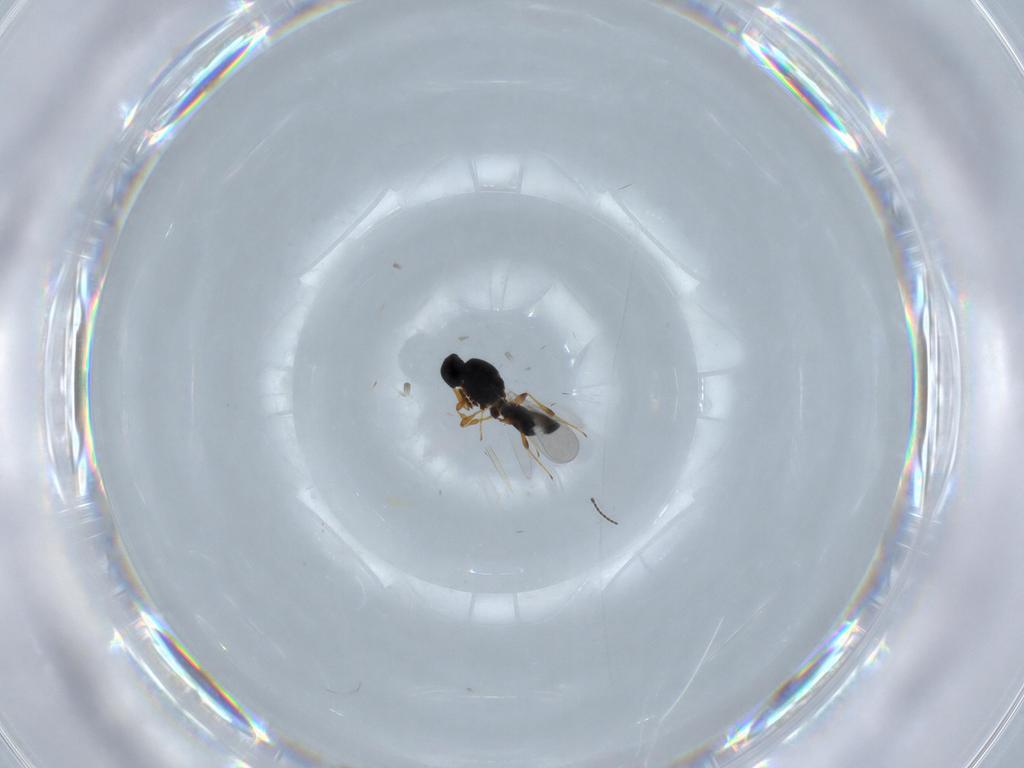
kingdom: Animalia
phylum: Arthropoda
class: Insecta
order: Hymenoptera
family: Platygastridae
